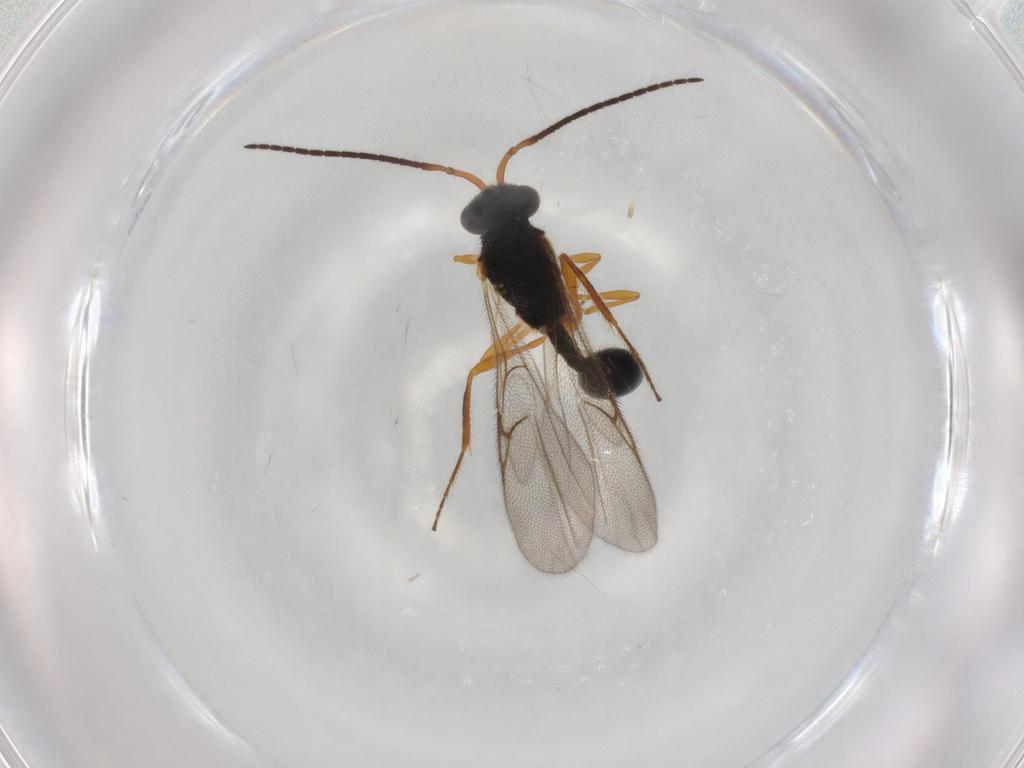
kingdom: Animalia
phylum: Arthropoda
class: Insecta
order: Hymenoptera
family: Diapriidae
